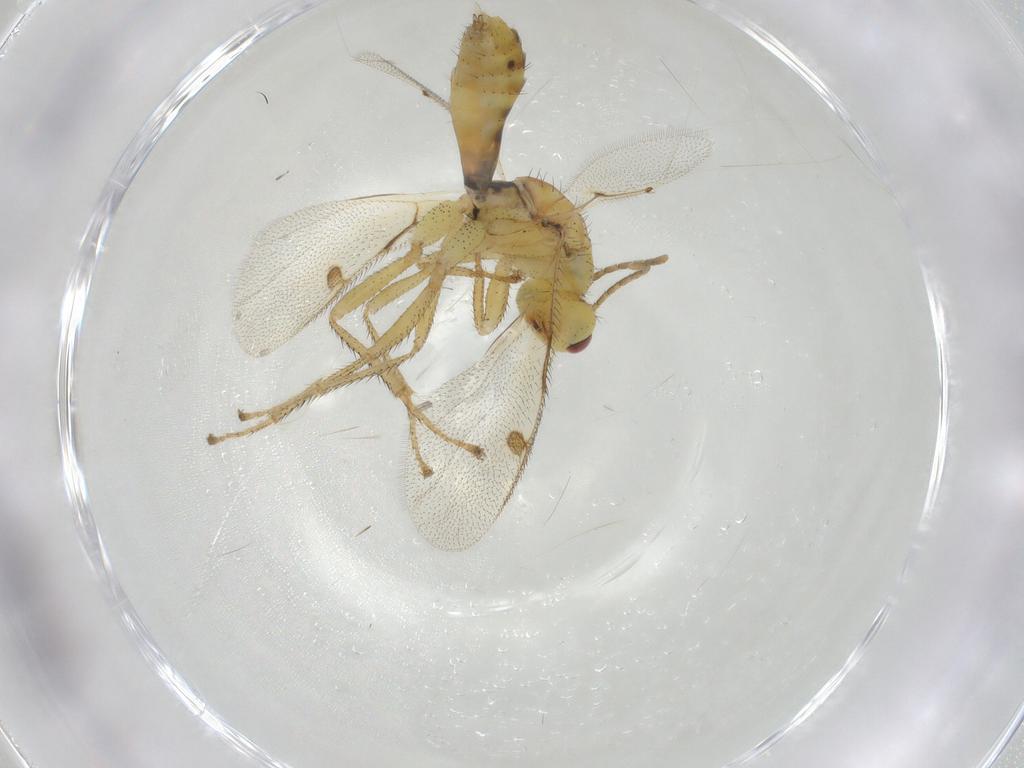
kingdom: Animalia
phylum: Arthropoda
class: Insecta
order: Hymenoptera
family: Megastigmidae
